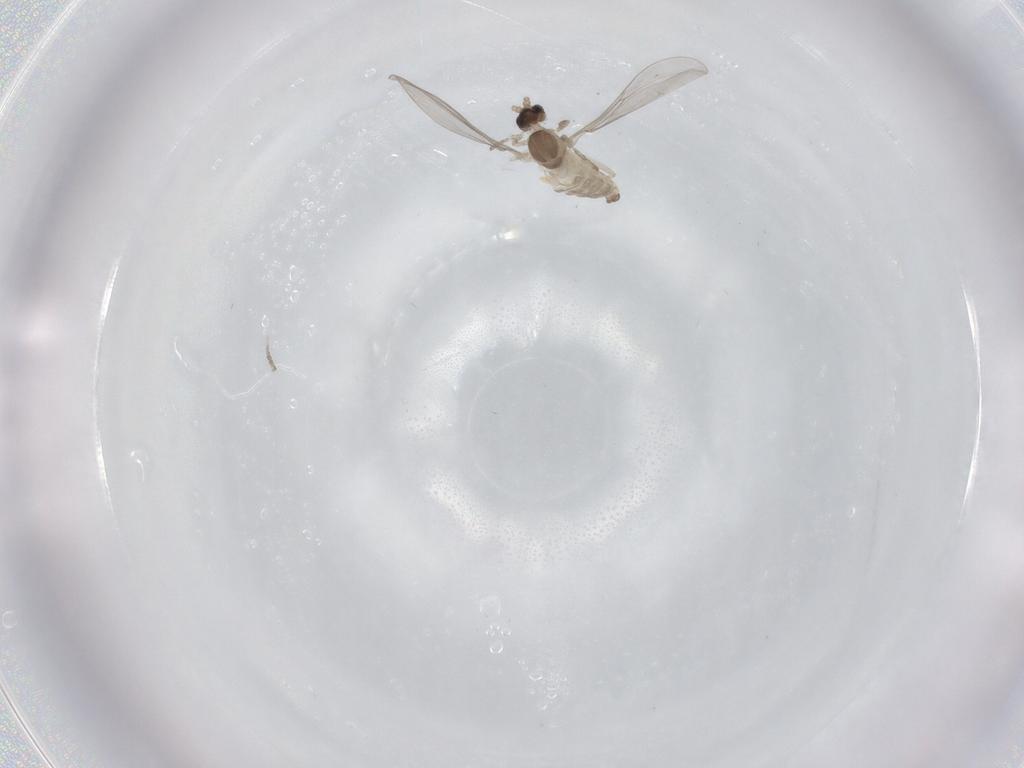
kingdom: Animalia
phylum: Arthropoda
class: Insecta
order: Diptera
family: Cecidomyiidae
